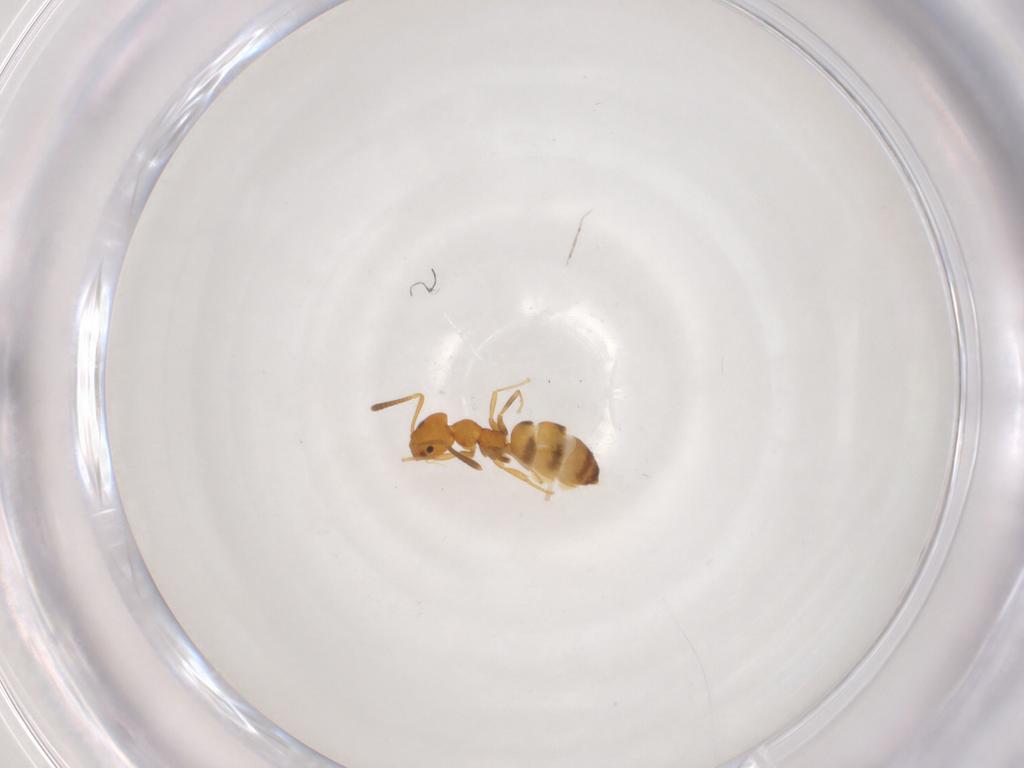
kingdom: Animalia
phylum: Arthropoda
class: Insecta
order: Hymenoptera
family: Formicidae
